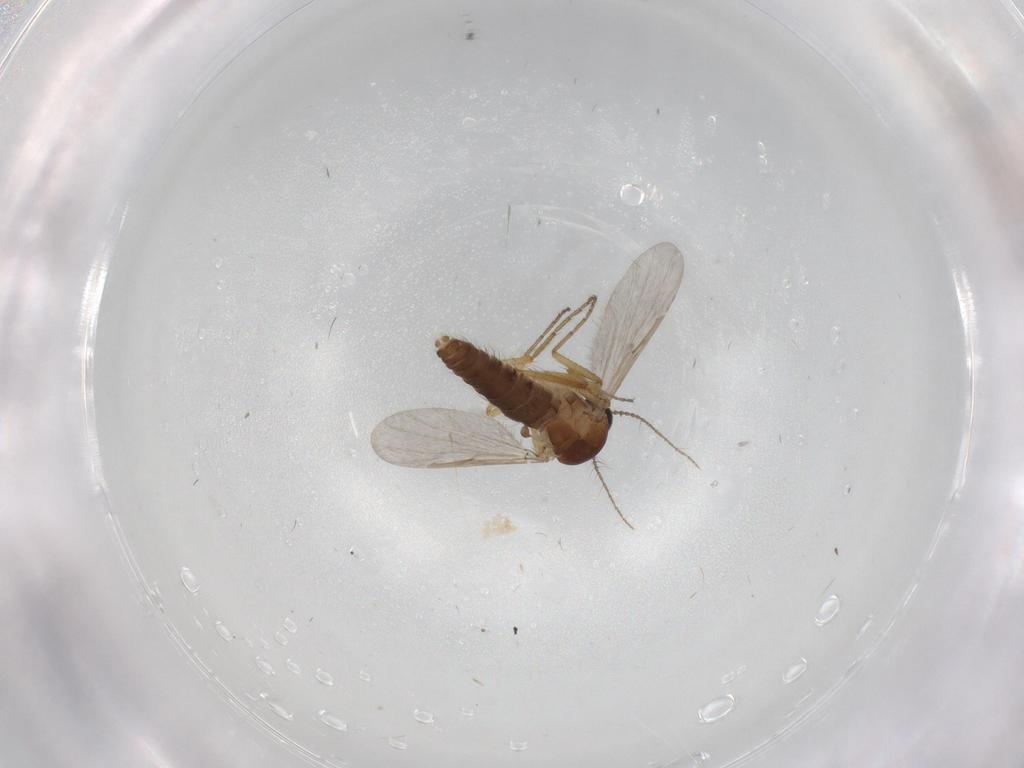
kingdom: Animalia
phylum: Arthropoda
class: Insecta
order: Diptera
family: Ceratopogonidae
